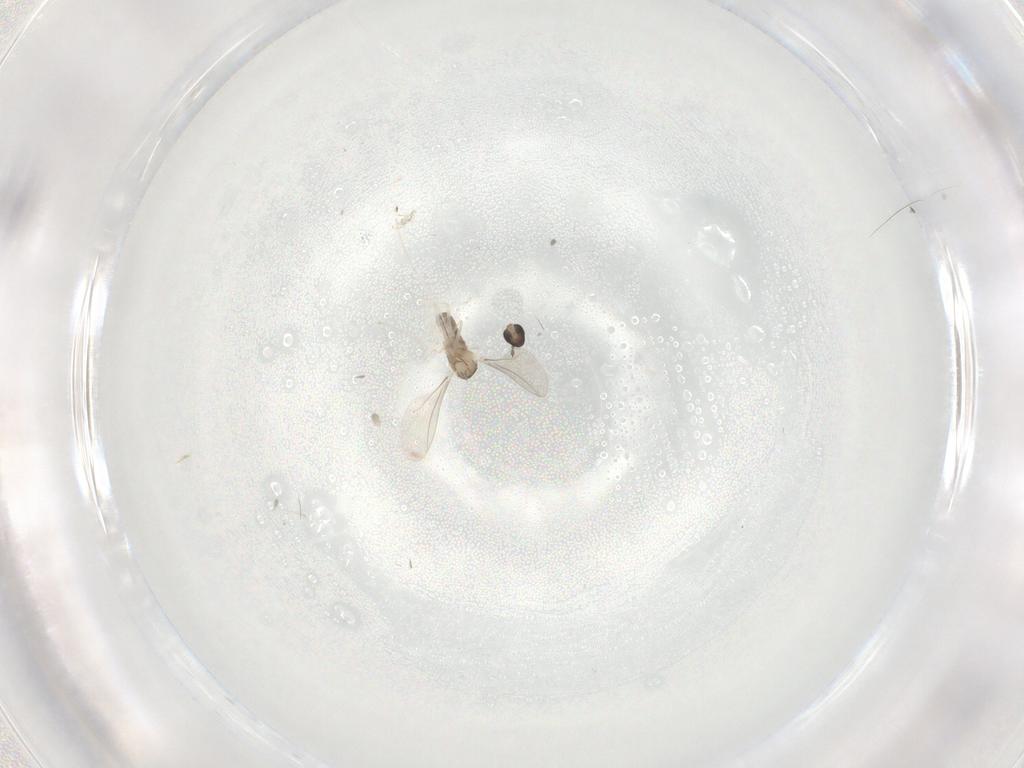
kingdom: Animalia
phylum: Arthropoda
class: Insecta
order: Diptera
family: Cecidomyiidae
